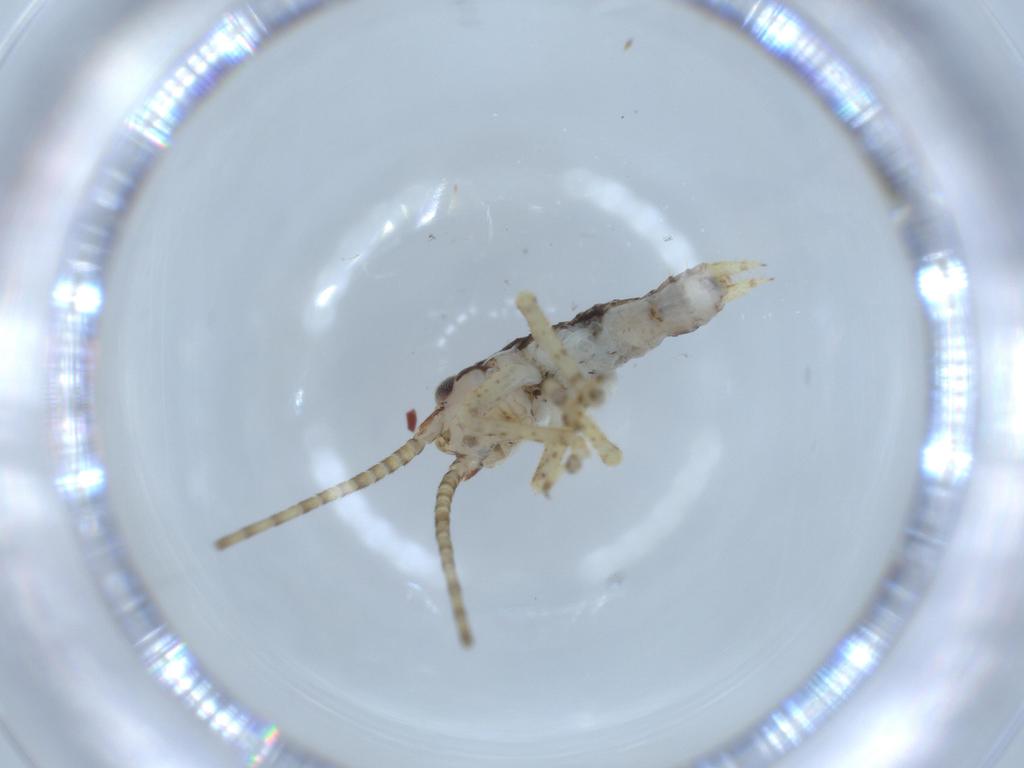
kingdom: Animalia
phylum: Arthropoda
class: Insecta
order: Orthoptera
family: Gryllidae
